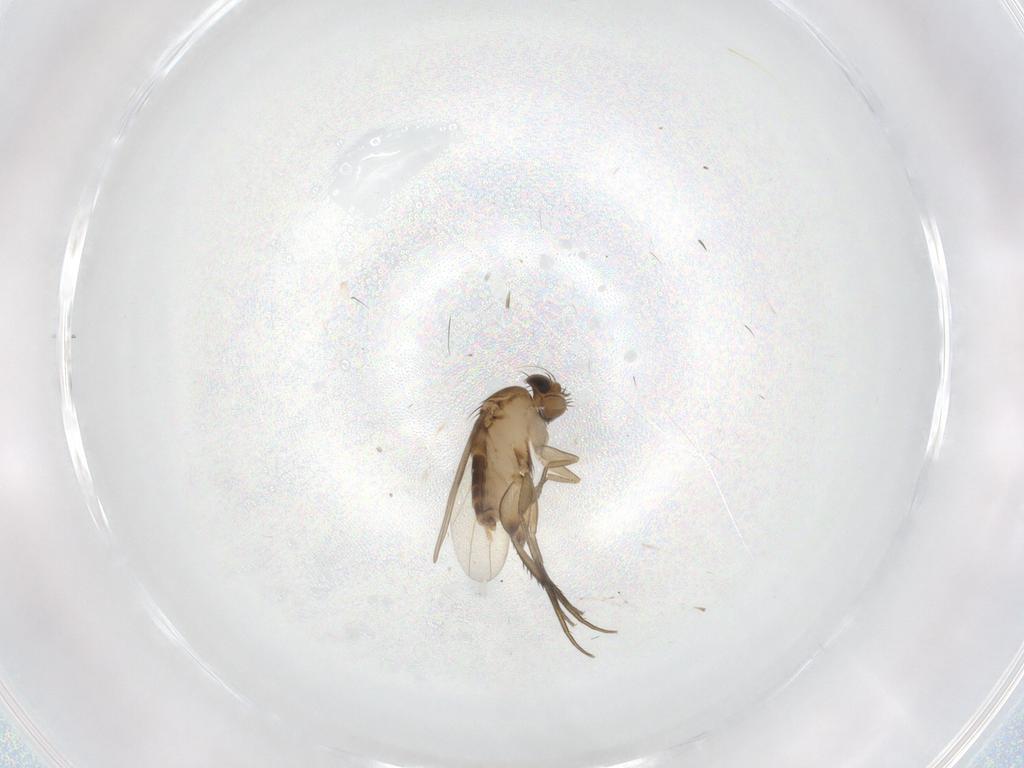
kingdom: Animalia
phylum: Arthropoda
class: Insecta
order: Diptera
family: Phoridae
